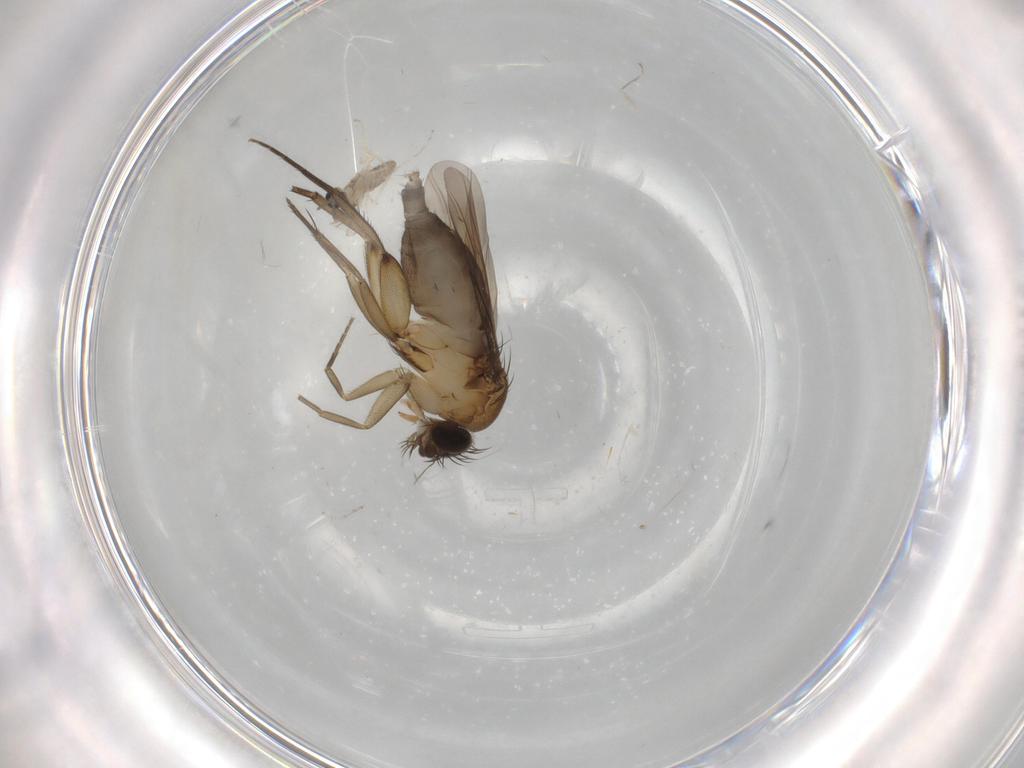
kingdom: Animalia
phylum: Arthropoda
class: Insecta
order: Diptera
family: Phoridae
